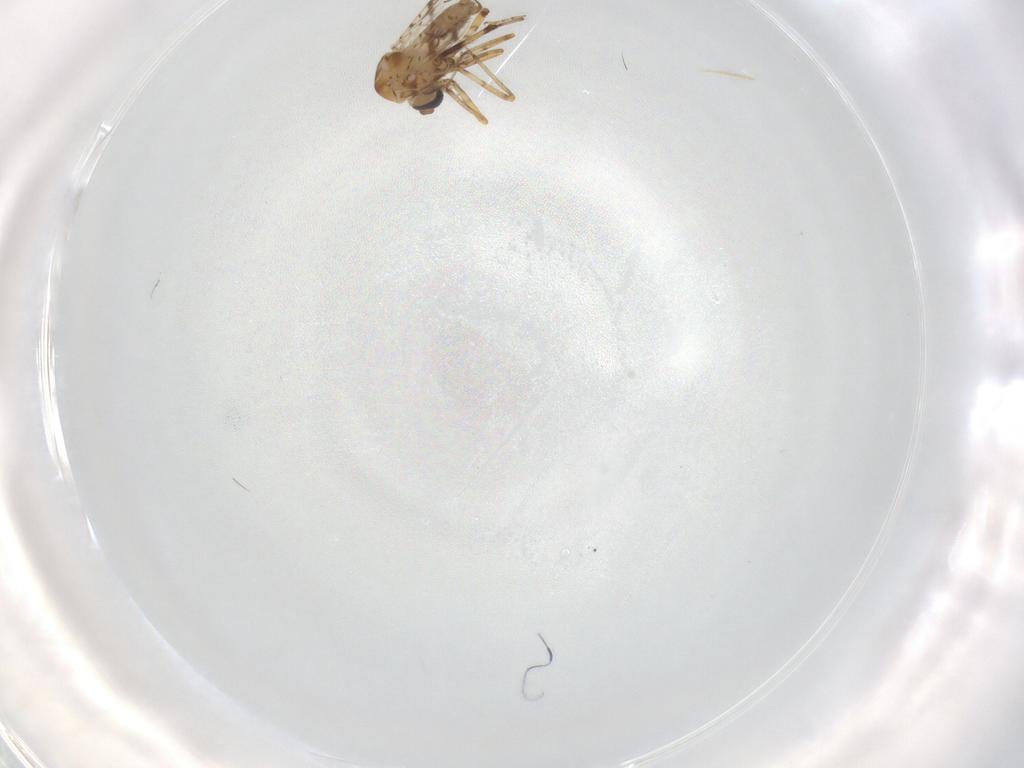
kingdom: Animalia
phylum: Arthropoda
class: Insecta
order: Diptera
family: Ceratopogonidae
